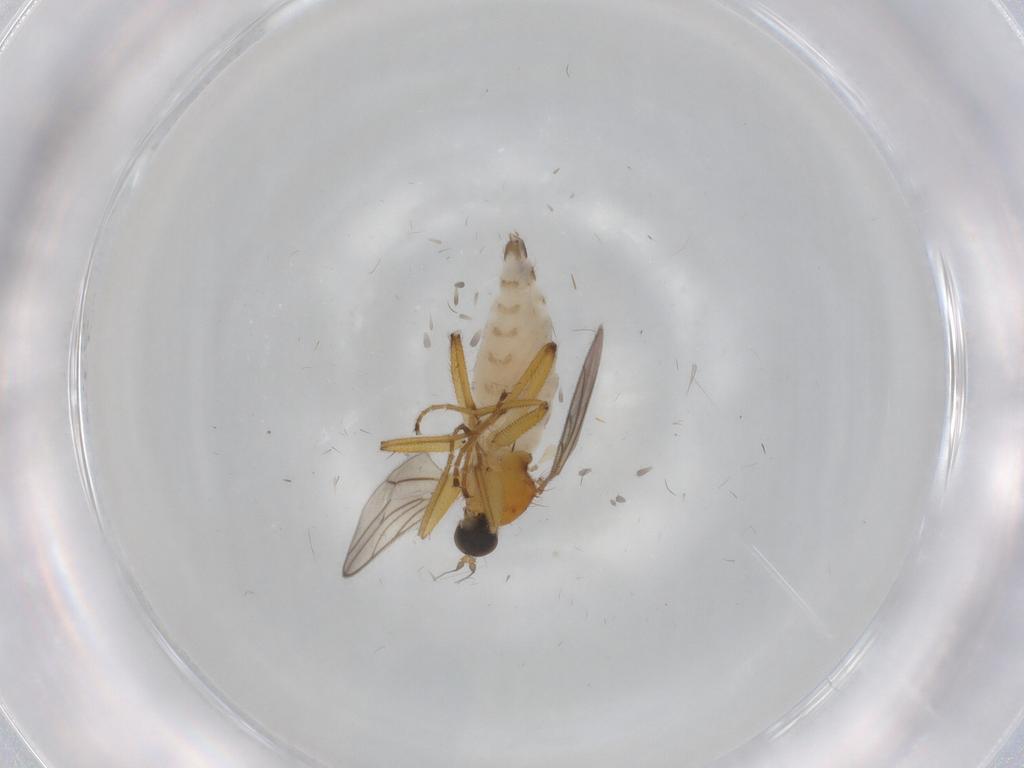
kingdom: Animalia
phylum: Arthropoda
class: Insecta
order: Diptera
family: Hybotidae
